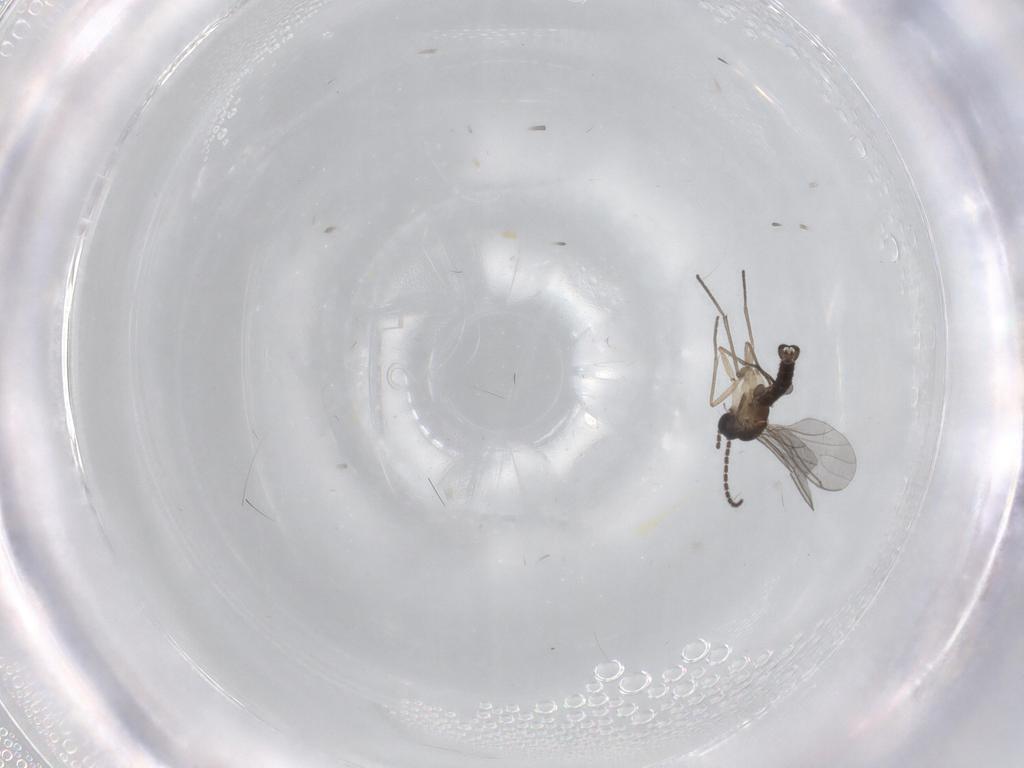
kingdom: Animalia
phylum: Arthropoda
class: Insecta
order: Diptera
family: Sciaridae
